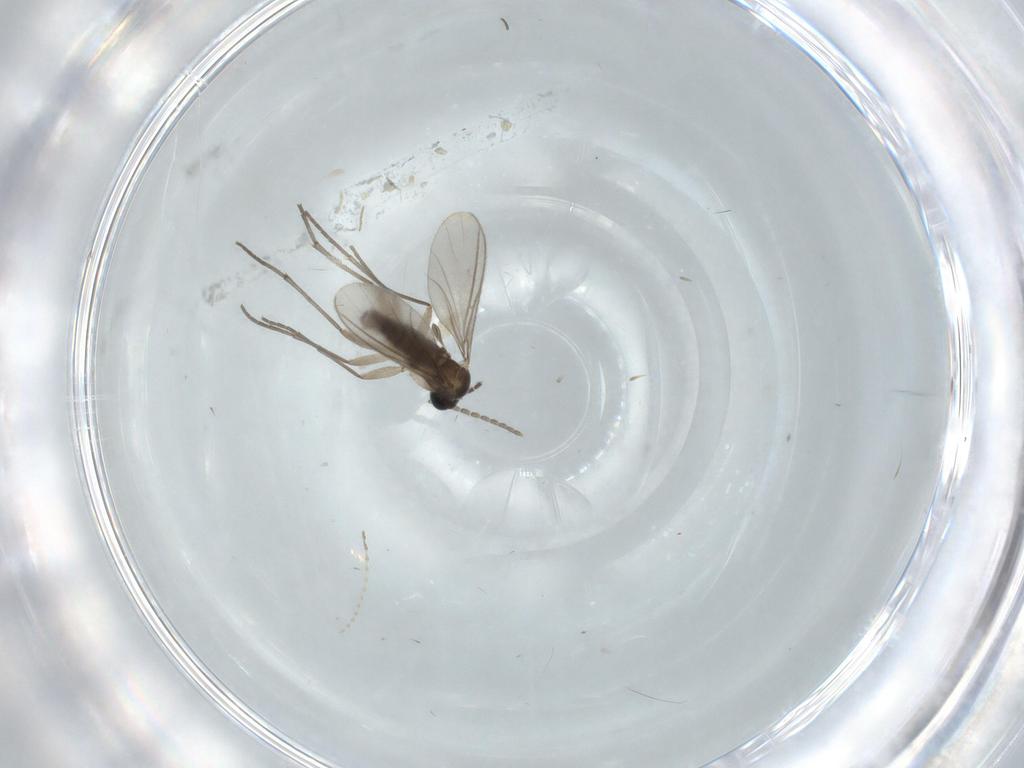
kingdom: Animalia
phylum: Arthropoda
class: Insecta
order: Diptera
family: Sciaridae
